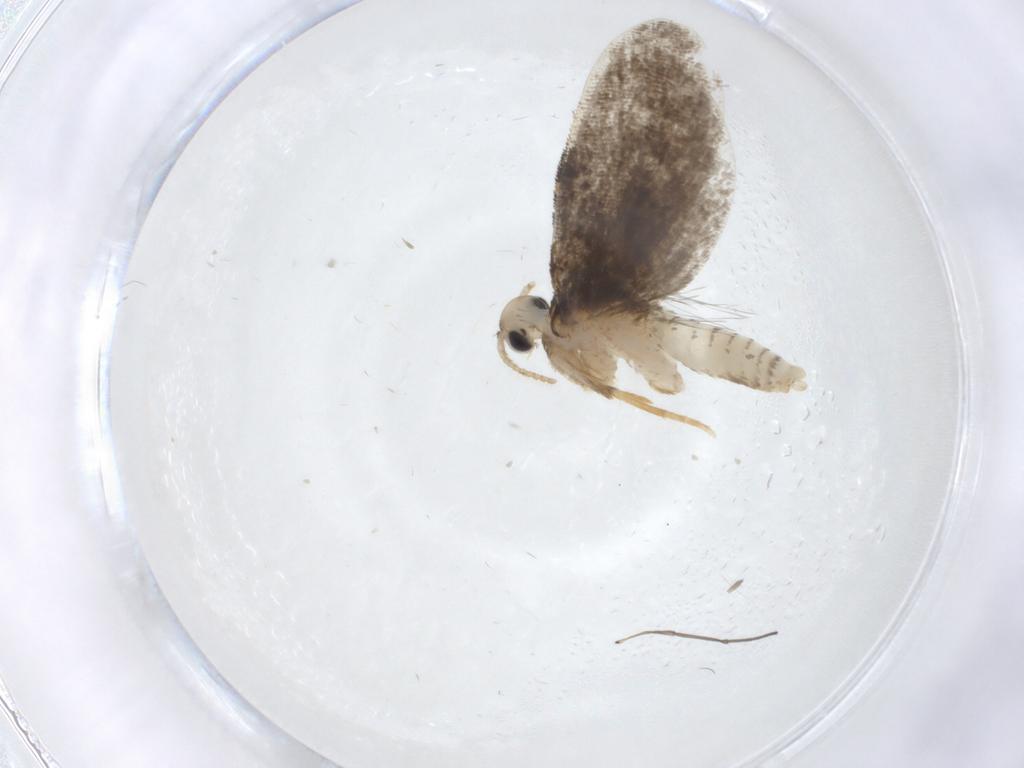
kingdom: Animalia
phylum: Arthropoda
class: Insecta
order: Lepidoptera
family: Psychidae
